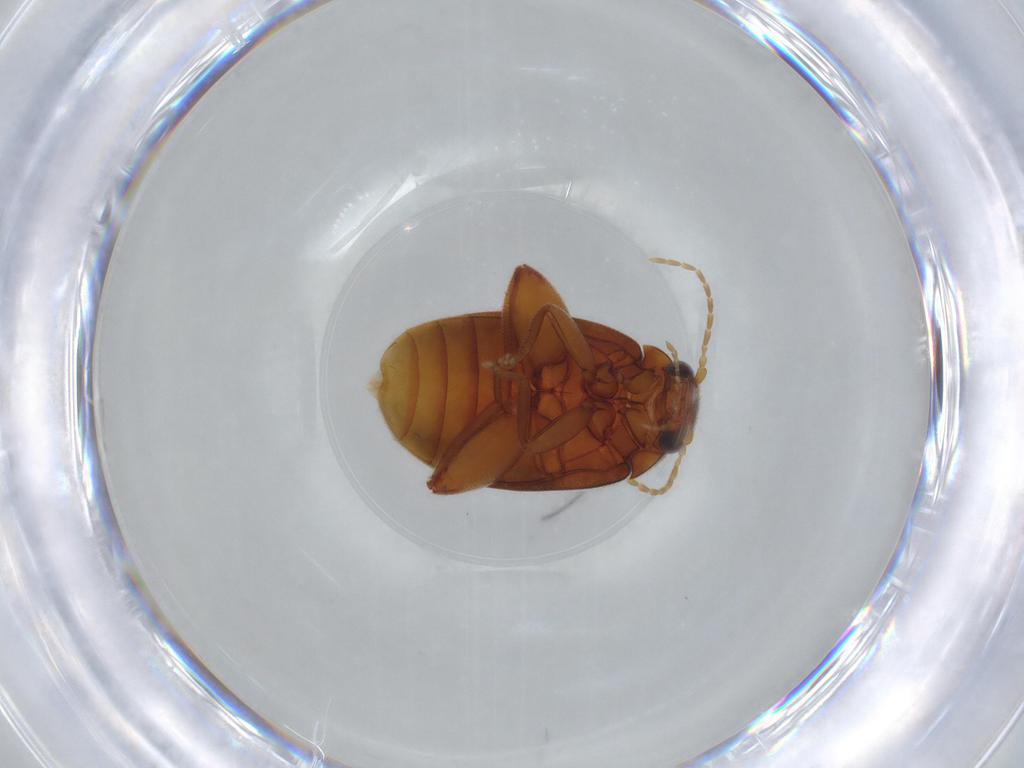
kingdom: Animalia
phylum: Arthropoda
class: Insecta
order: Coleoptera
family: Scirtidae
